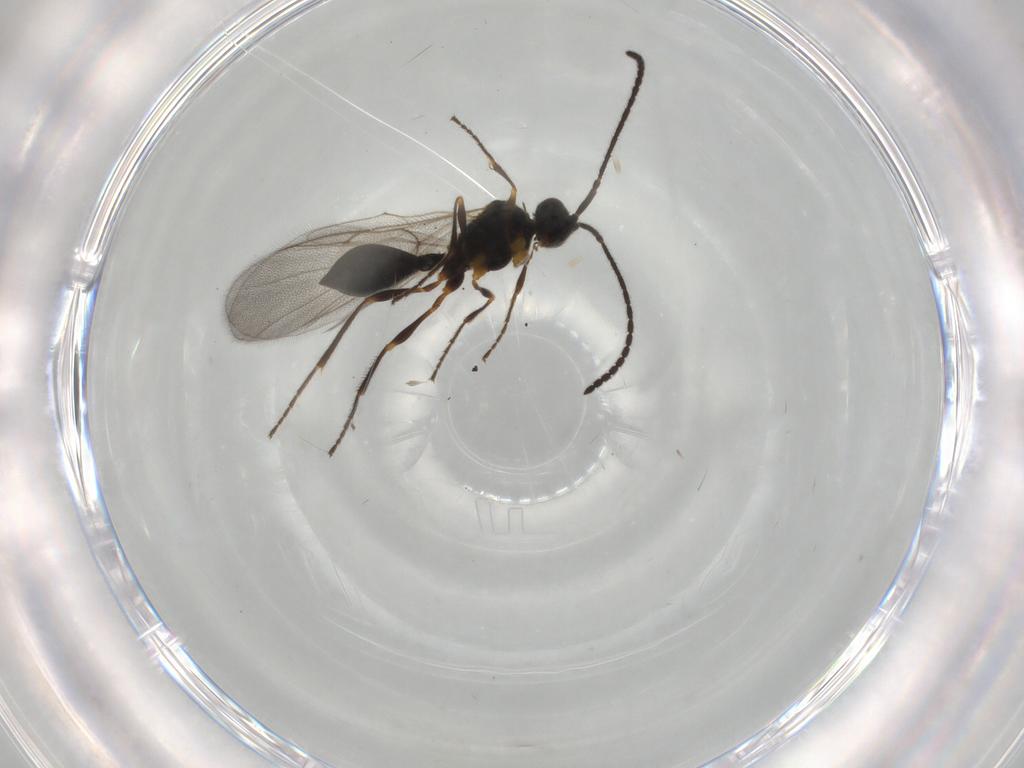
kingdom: Animalia
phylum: Arthropoda
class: Insecta
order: Hymenoptera
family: Diapriidae
